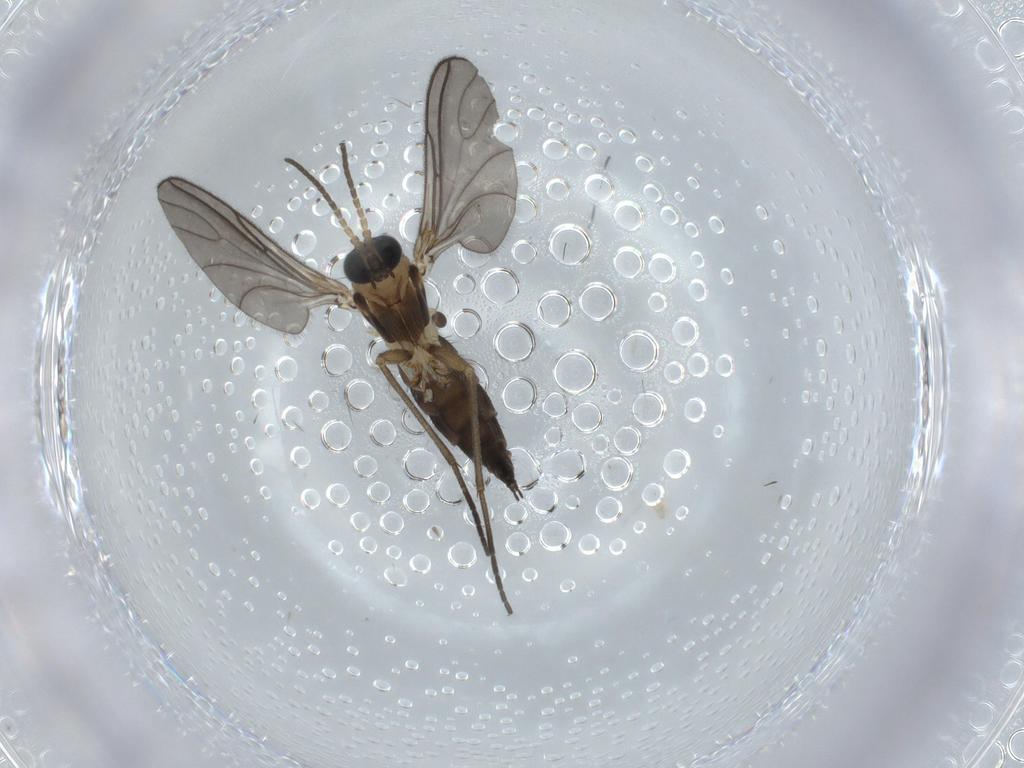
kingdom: Animalia
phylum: Arthropoda
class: Insecta
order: Diptera
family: Sciaridae
